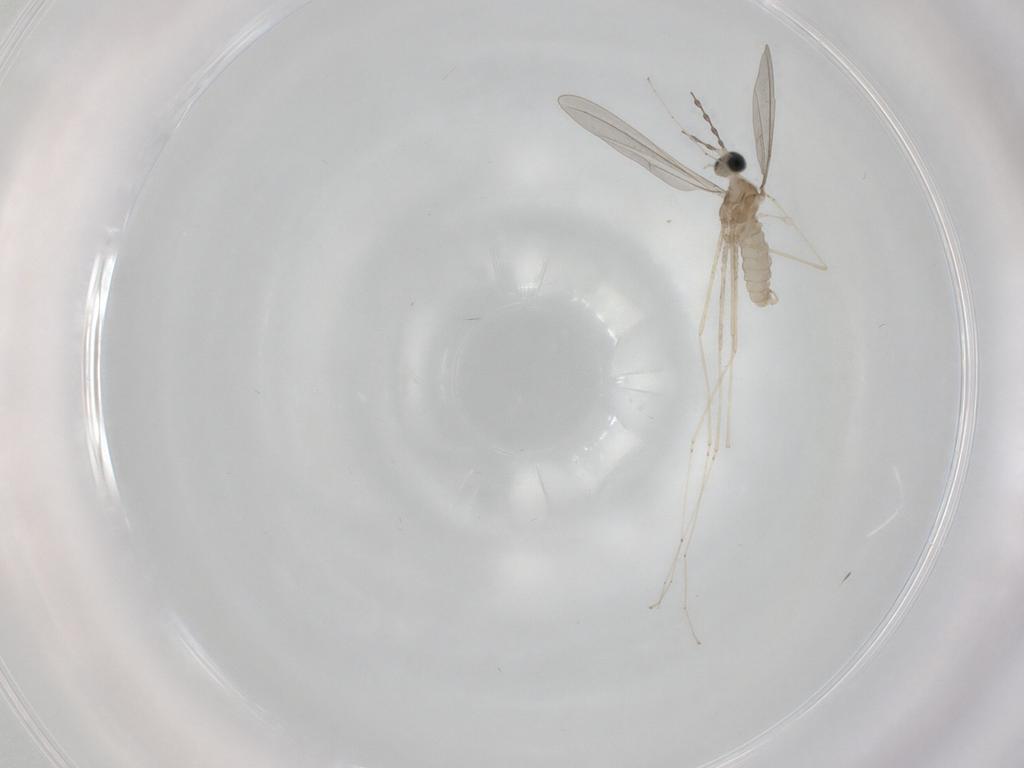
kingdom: Animalia
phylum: Arthropoda
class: Insecta
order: Diptera
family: Cecidomyiidae
